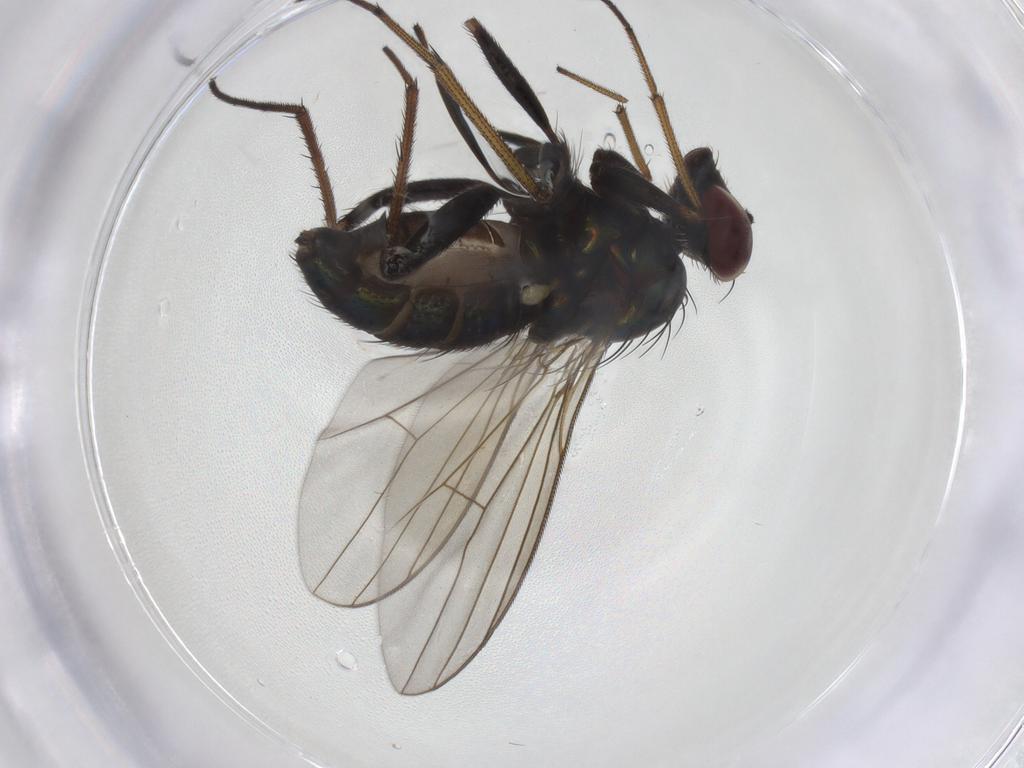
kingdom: Animalia
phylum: Arthropoda
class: Insecta
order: Diptera
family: Dolichopodidae
